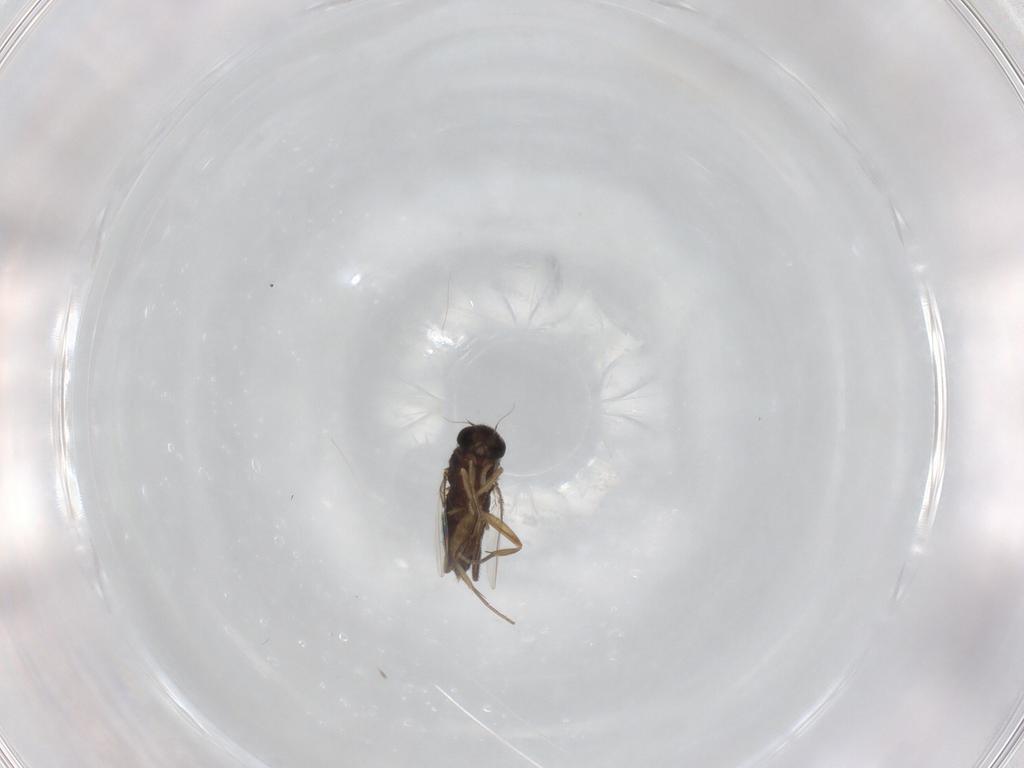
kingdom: Animalia
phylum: Arthropoda
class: Insecta
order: Diptera
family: Phoridae
